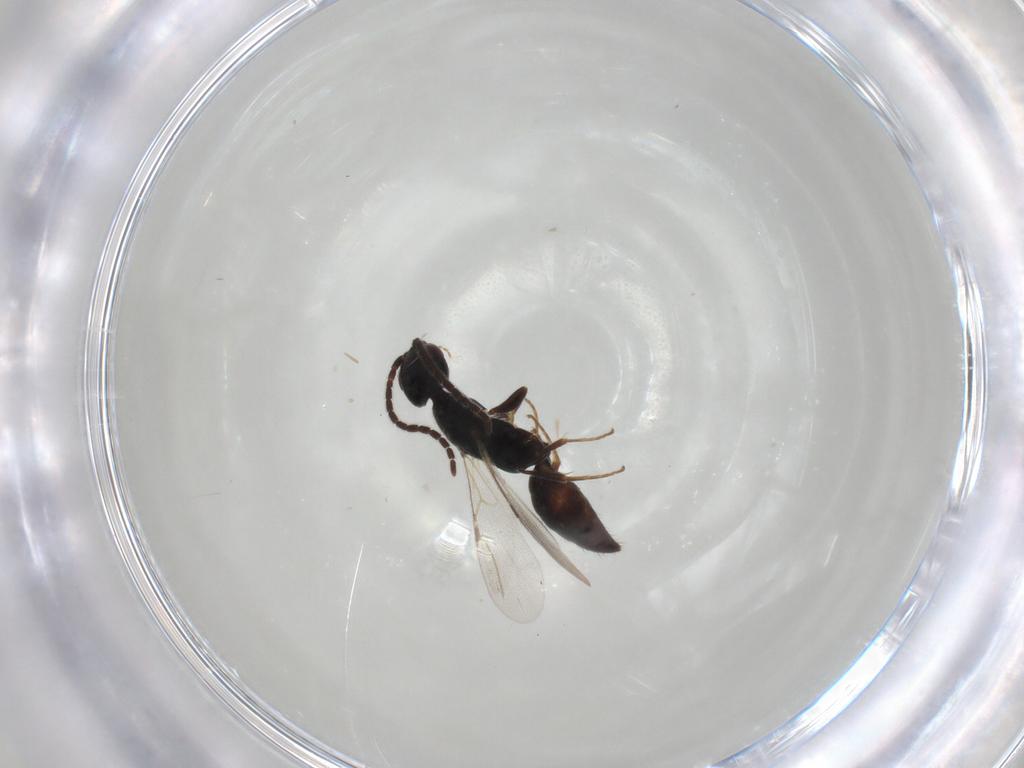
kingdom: Animalia
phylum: Arthropoda
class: Insecta
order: Hymenoptera
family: Bethylidae
